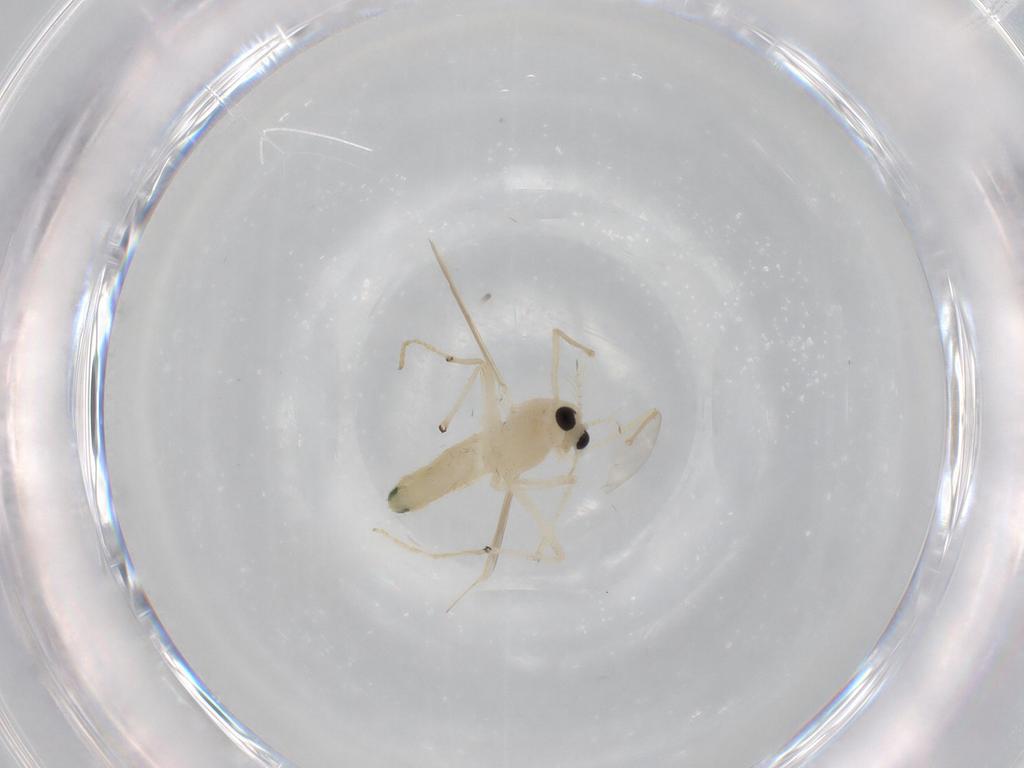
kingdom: Animalia
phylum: Arthropoda
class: Insecta
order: Diptera
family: Chironomidae
